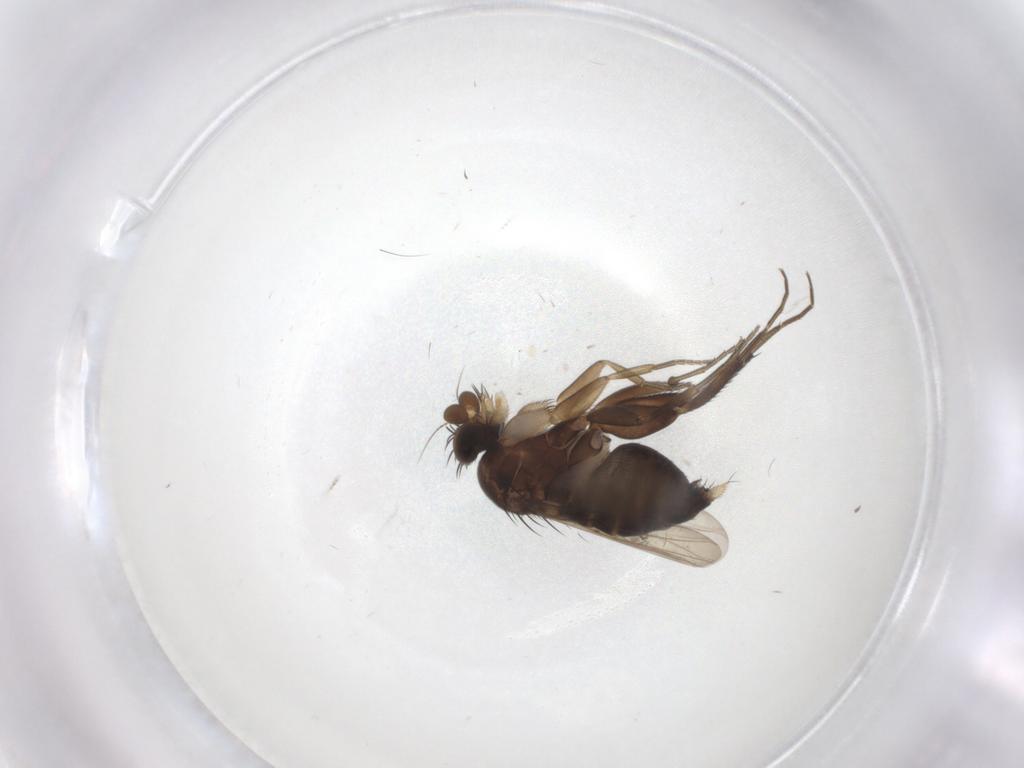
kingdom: Animalia
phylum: Arthropoda
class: Insecta
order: Diptera
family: Phoridae
